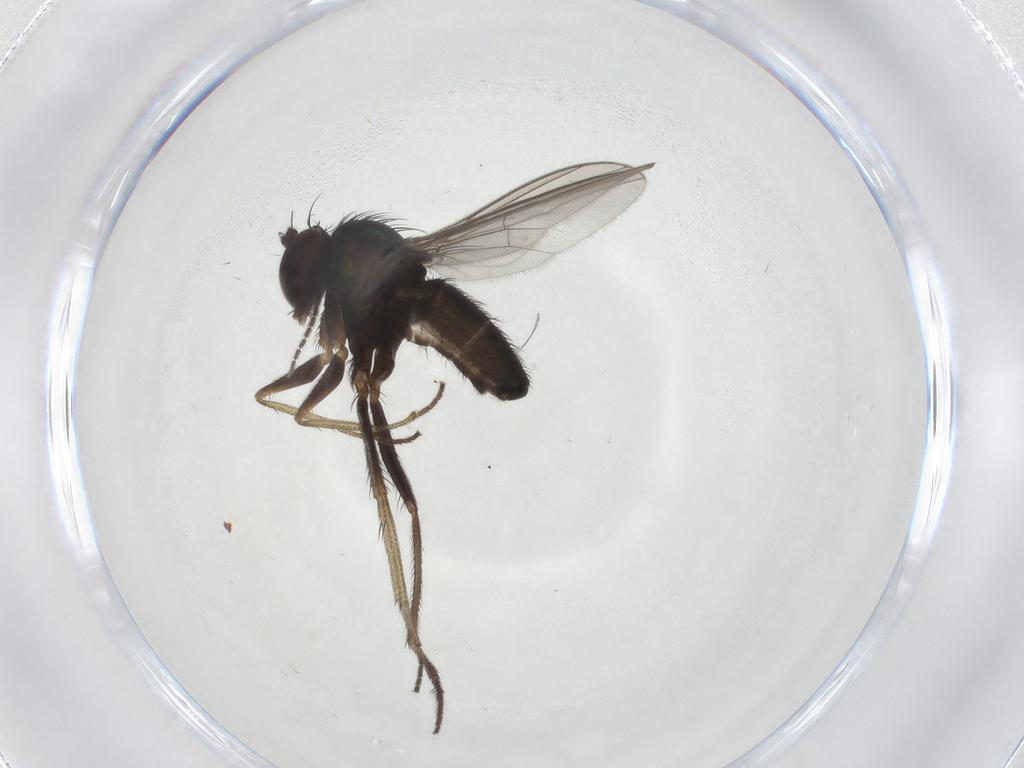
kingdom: Animalia
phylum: Arthropoda
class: Insecta
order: Diptera
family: Sciaridae
